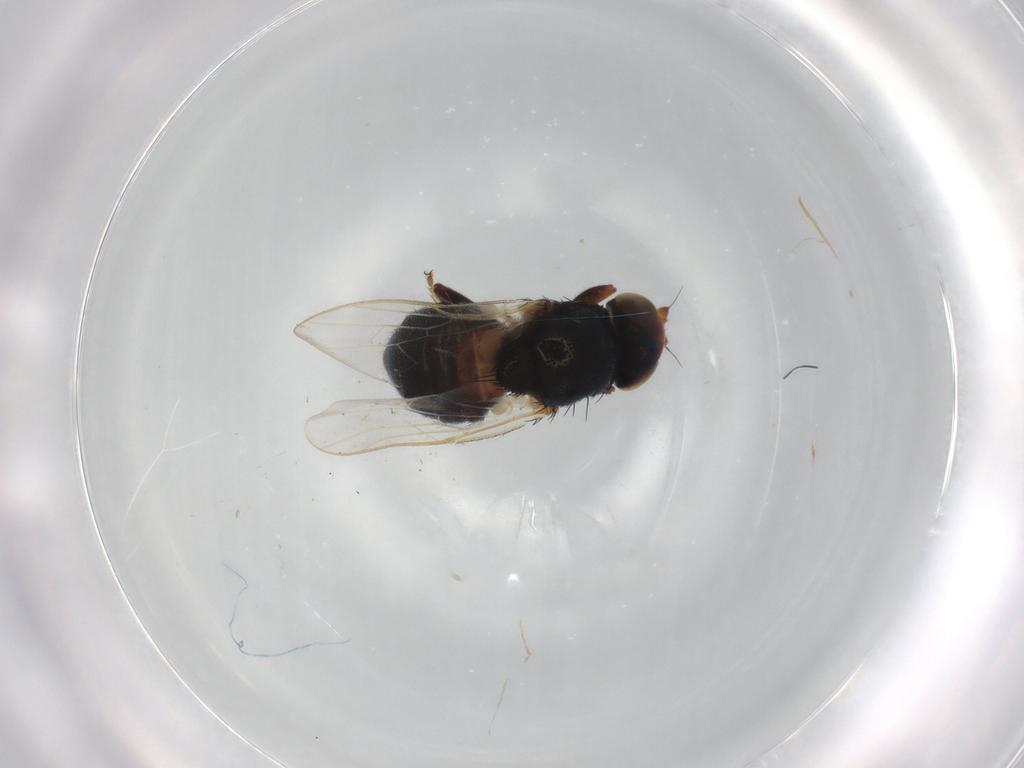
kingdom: Animalia
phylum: Arthropoda
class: Insecta
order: Diptera
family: Chloropidae
